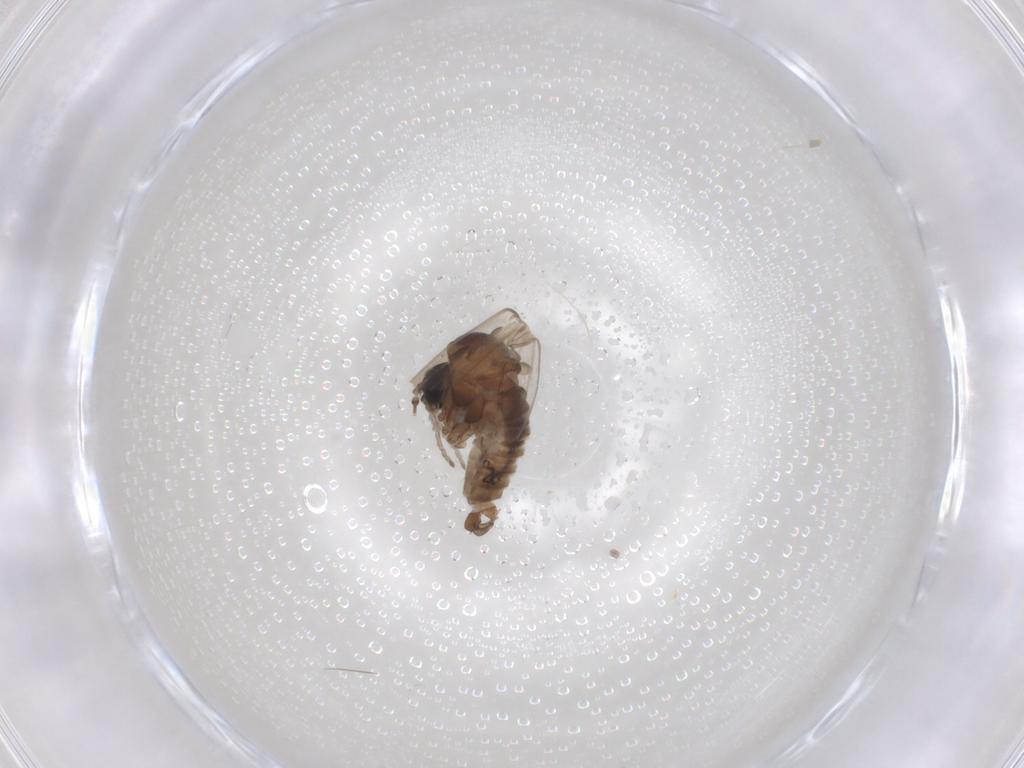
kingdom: Animalia
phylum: Arthropoda
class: Insecta
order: Diptera
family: Psychodidae
